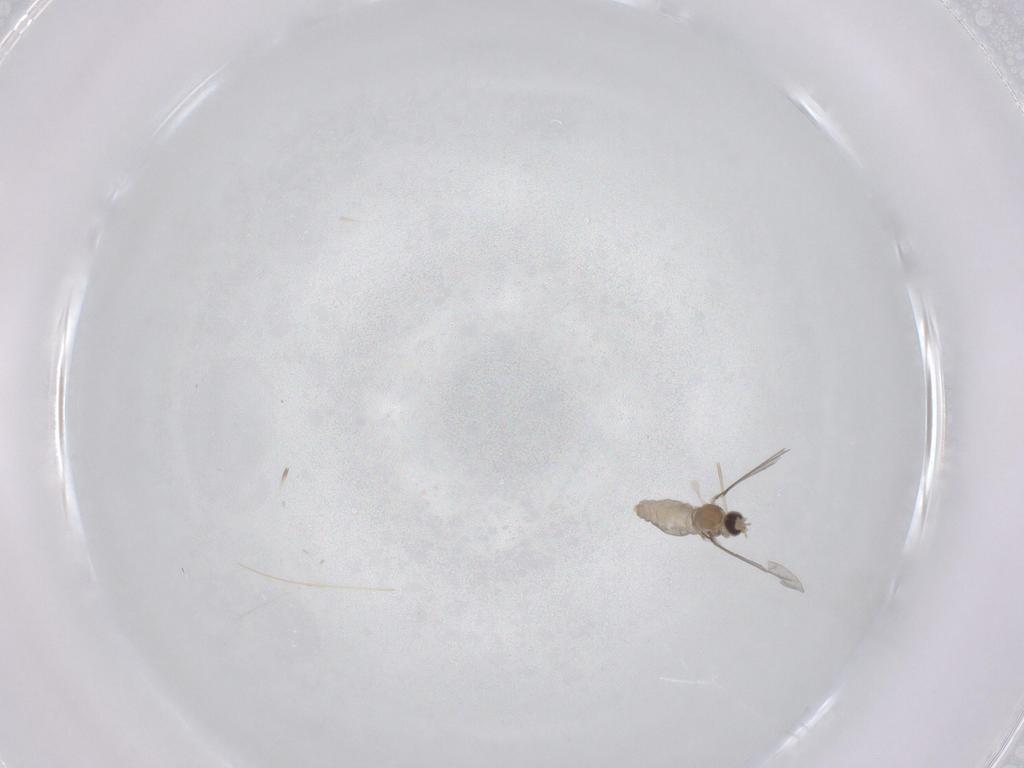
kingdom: Animalia
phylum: Arthropoda
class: Insecta
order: Diptera
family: Cecidomyiidae
